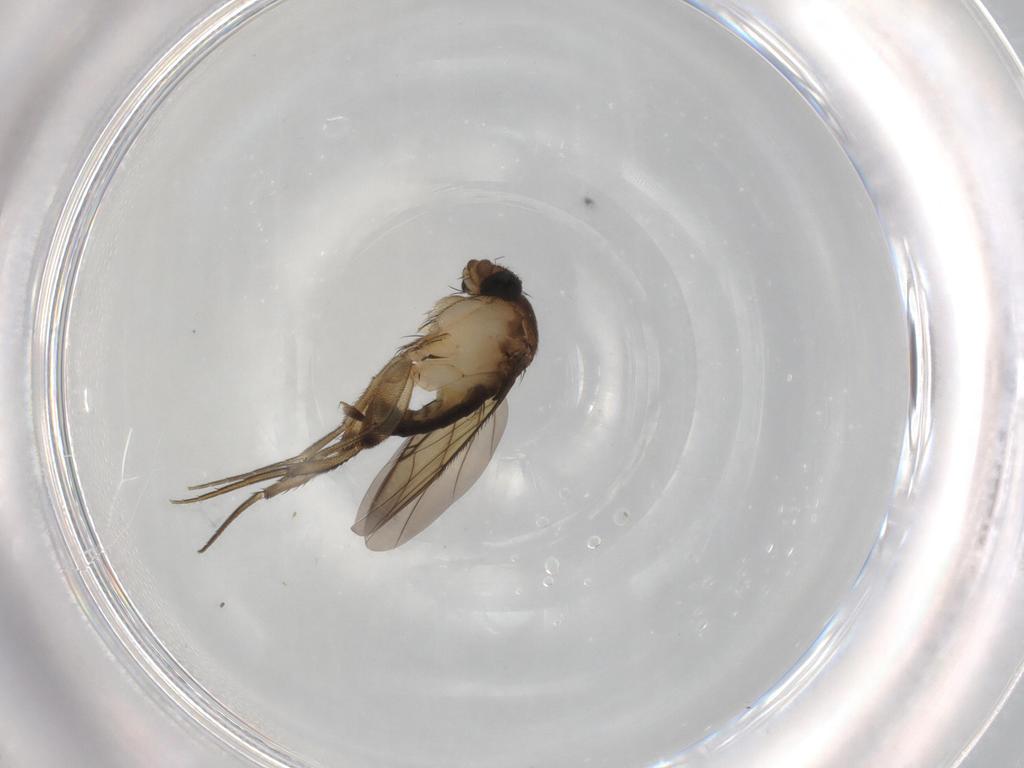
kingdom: Animalia
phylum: Arthropoda
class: Insecta
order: Diptera
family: Phoridae
